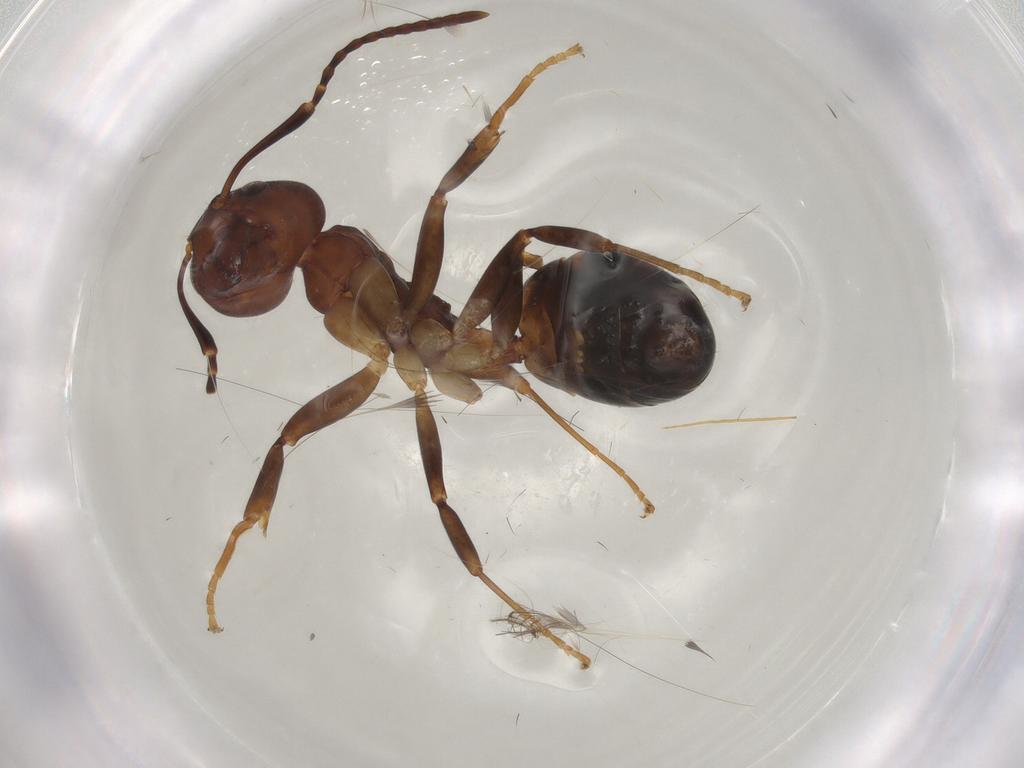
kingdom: Animalia
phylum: Arthropoda
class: Insecta
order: Hymenoptera
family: Formicidae
